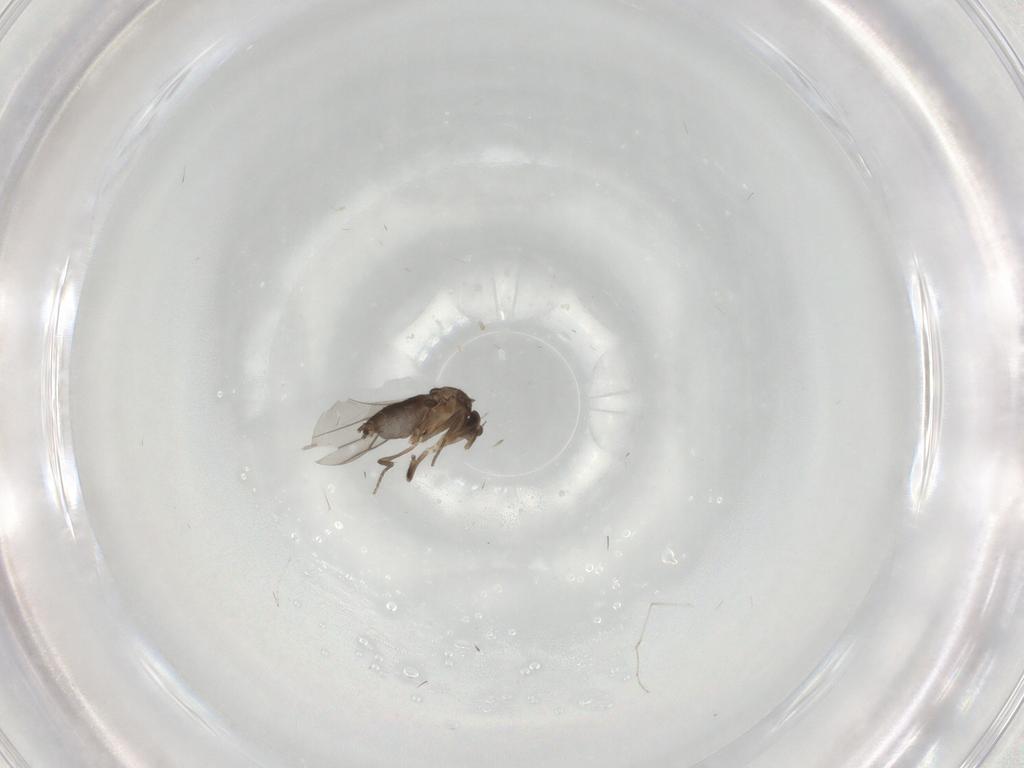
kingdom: Animalia
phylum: Arthropoda
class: Insecta
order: Diptera
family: Cecidomyiidae
